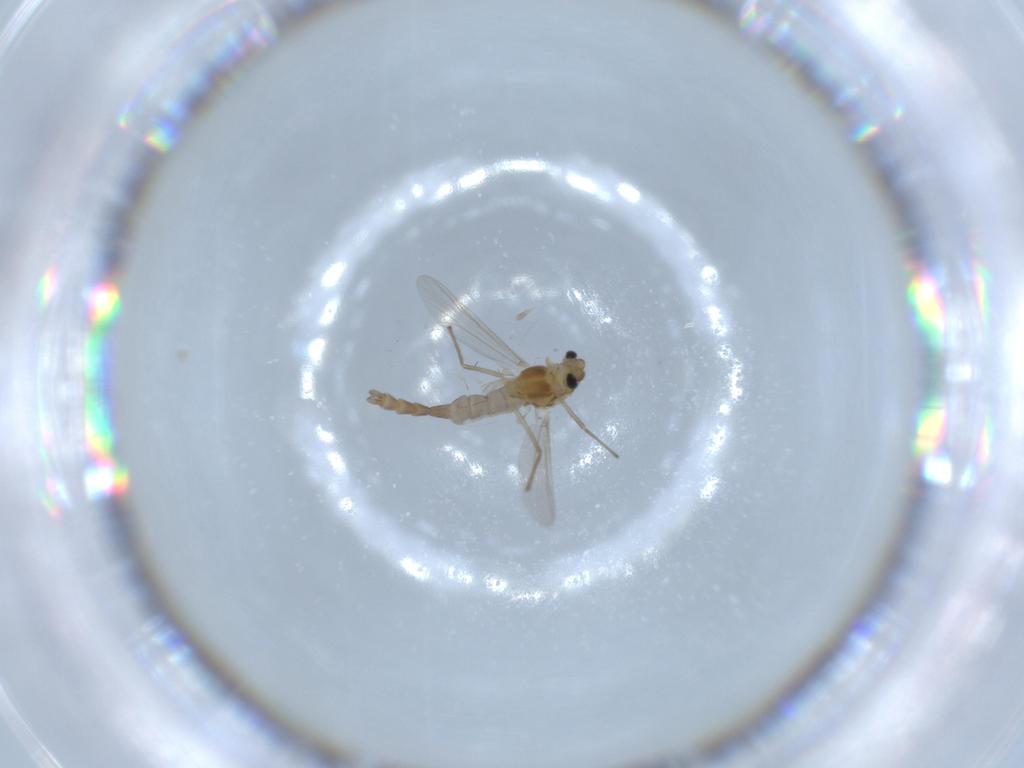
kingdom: Animalia
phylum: Arthropoda
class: Insecta
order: Diptera
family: Chironomidae
